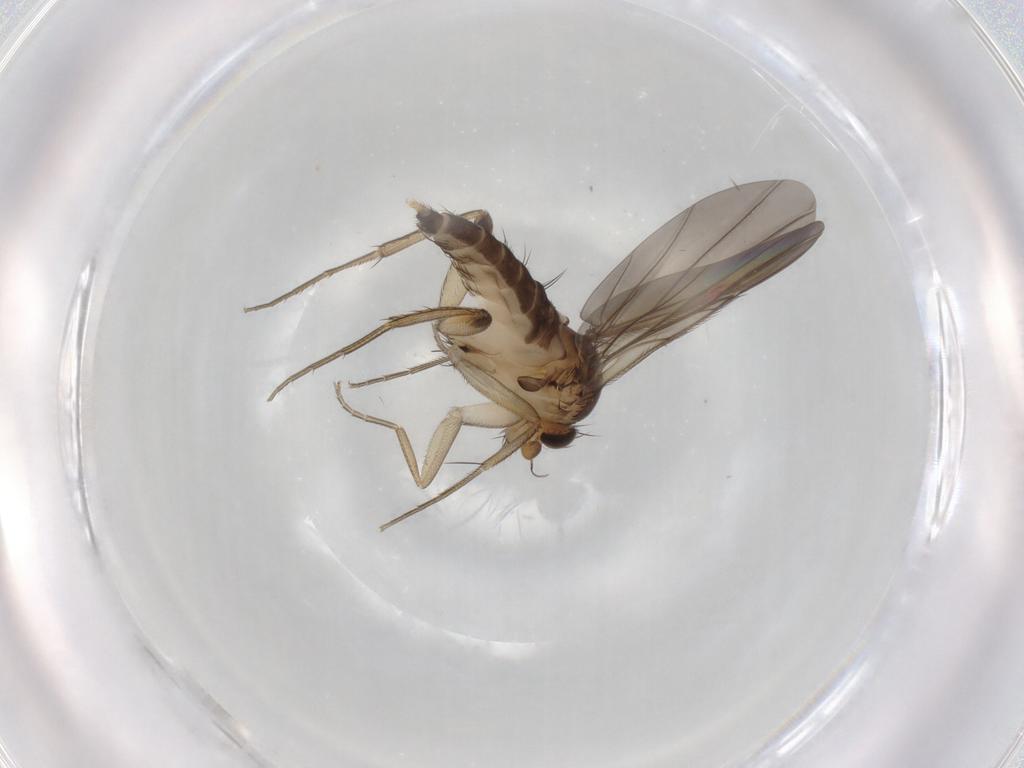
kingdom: Animalia
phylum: Arthropoda
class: Insecta
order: Diptera
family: Phoridae
